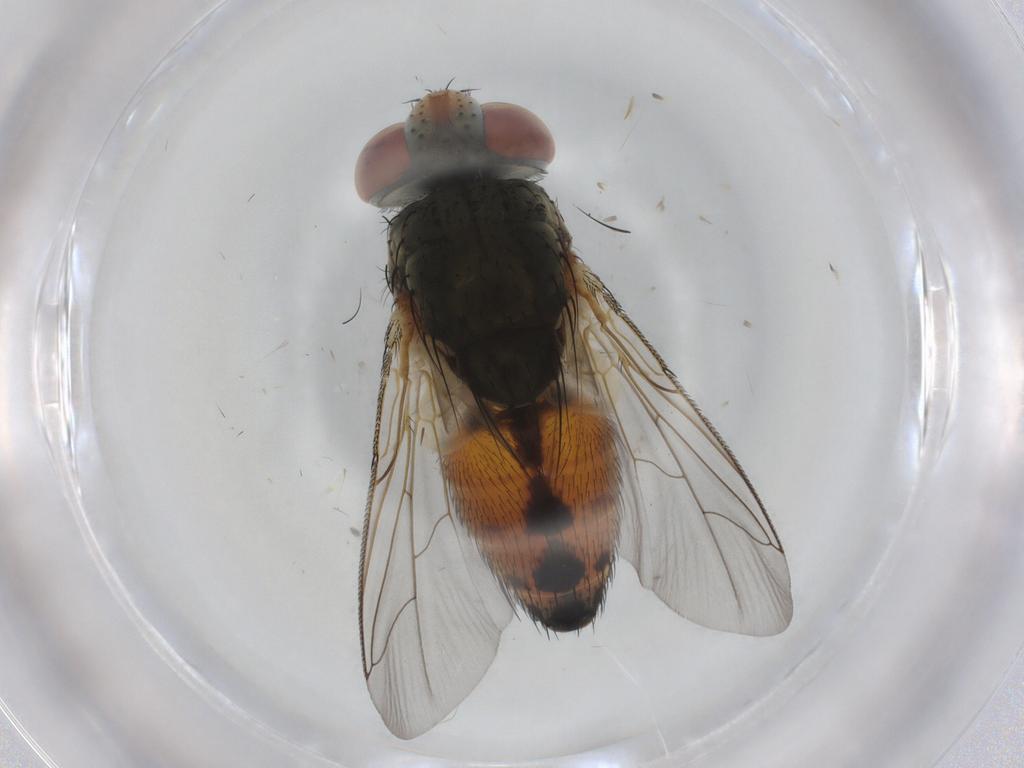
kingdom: Animalia
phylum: Arthropoda
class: Insecta
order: Diptera
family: Sarcophagidae
